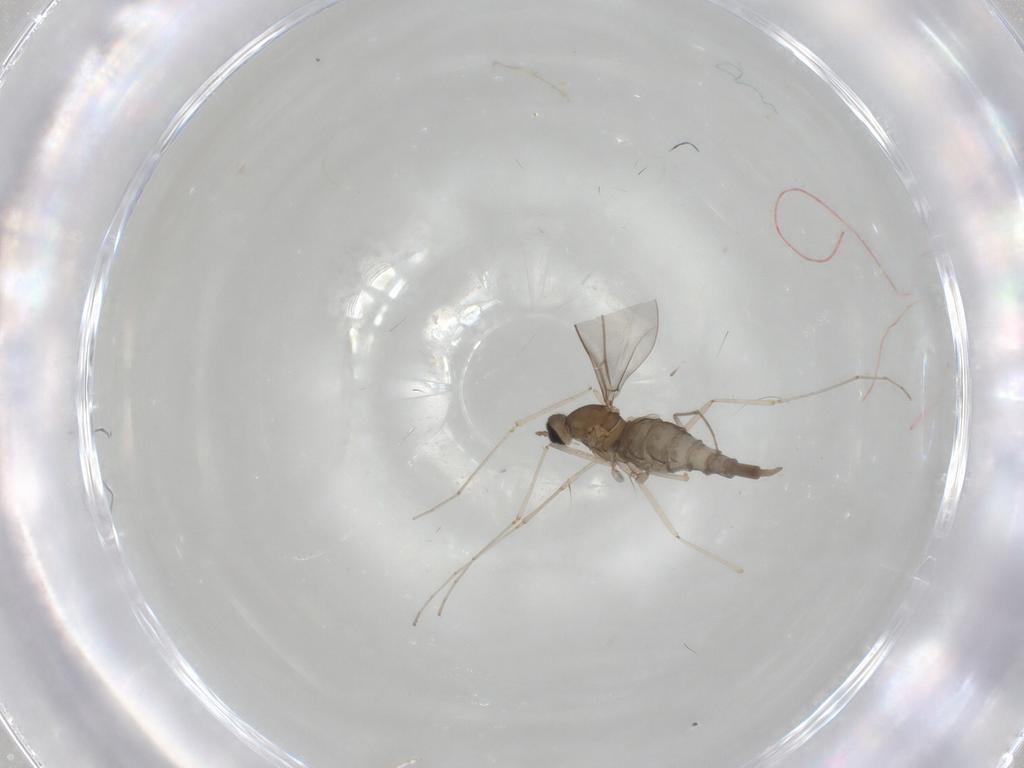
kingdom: Animalia
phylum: Arthropoda
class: Insecta
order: Diptera
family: Cecidomyiidae
